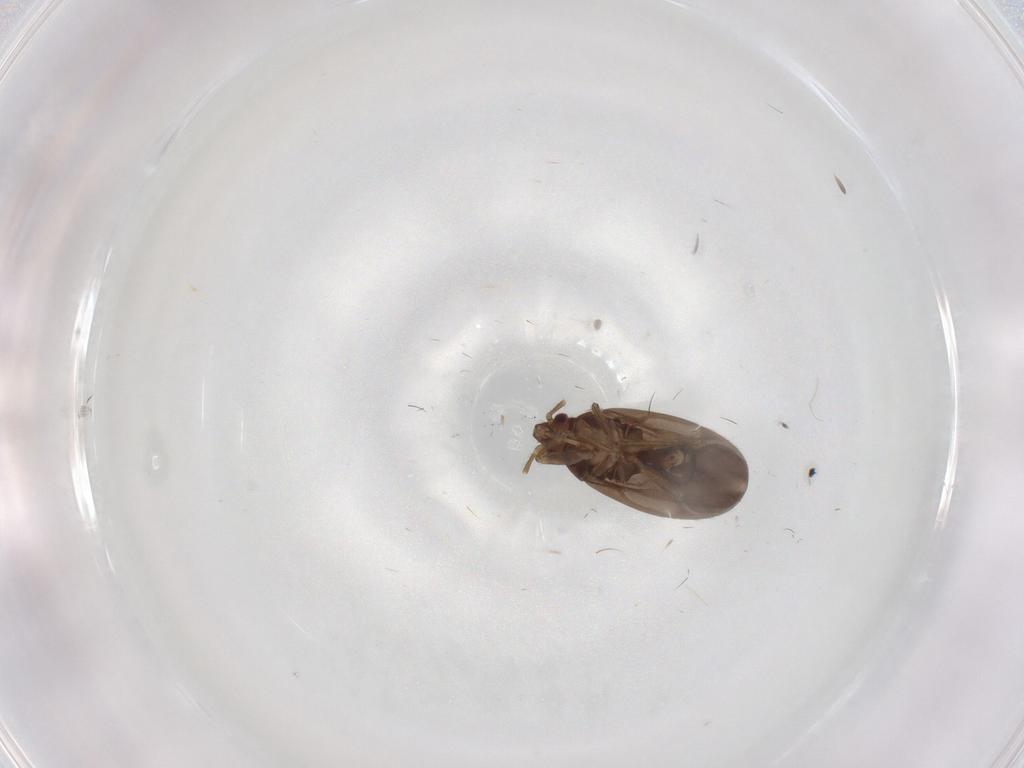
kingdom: Animalia
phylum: Arthropoda
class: Insecta
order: Hemiptera
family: Ceratocombidae
